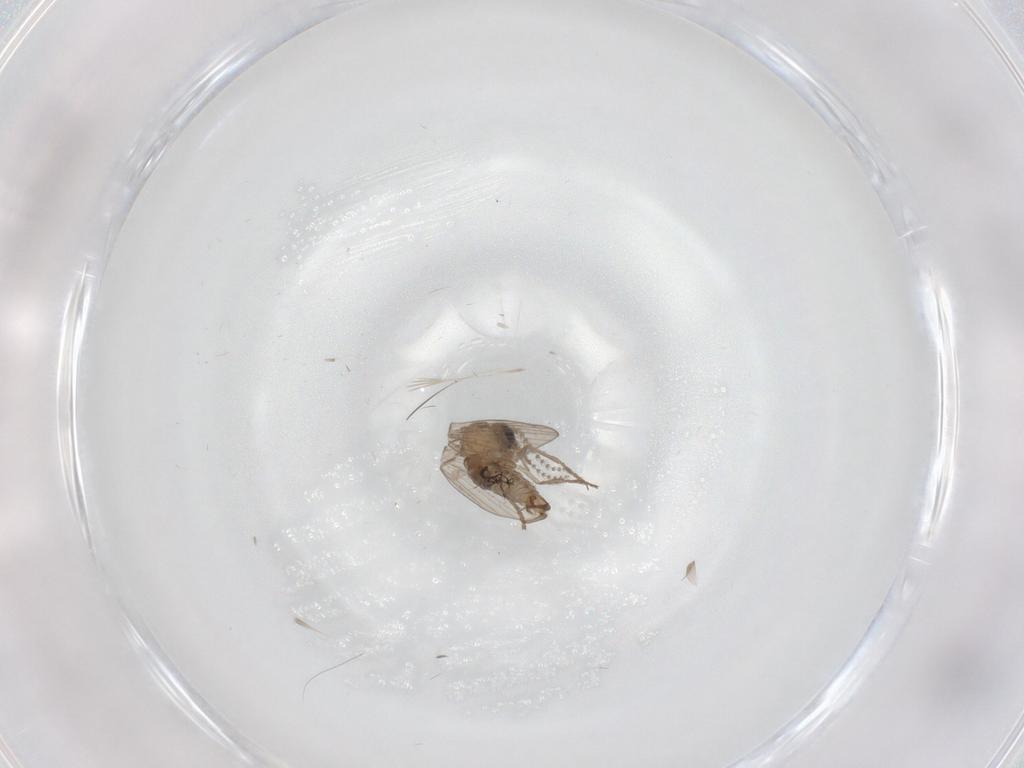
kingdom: Animalia
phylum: Arthropoda
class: Insecta
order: Diptera
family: Psychodidae
